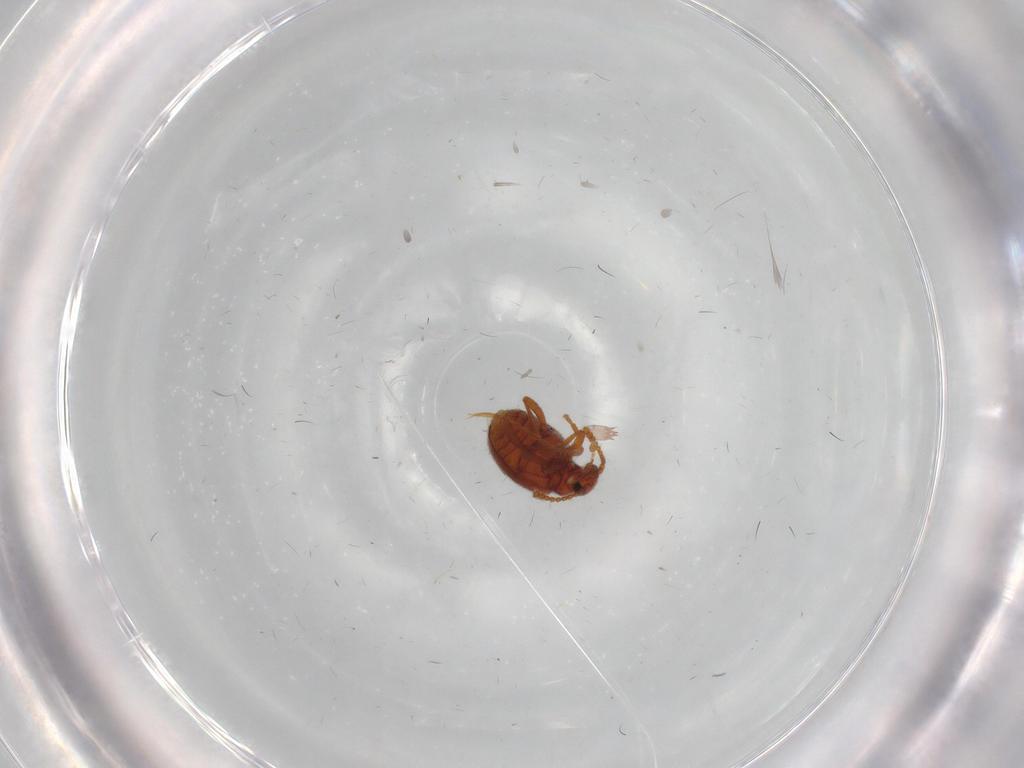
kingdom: Animalia
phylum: Arthropoda
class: Insecta
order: Coleoptera
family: Aderidae
